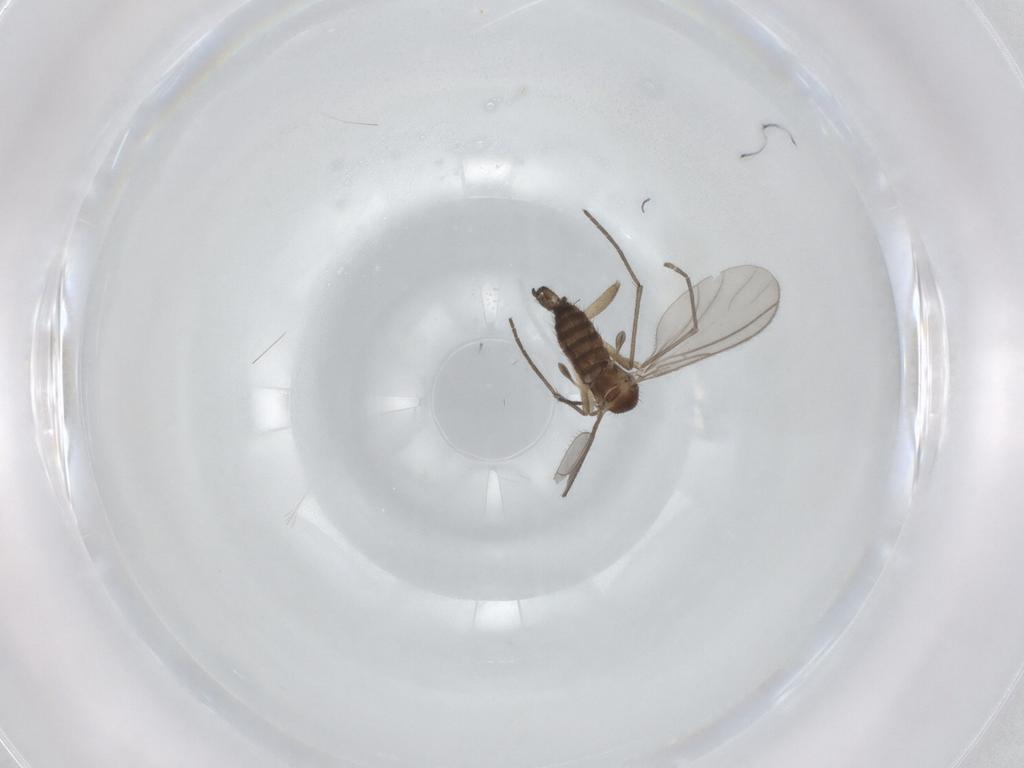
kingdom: Animalia
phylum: Arthropoda
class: Insecta
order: Diptera
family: Sciaridae
